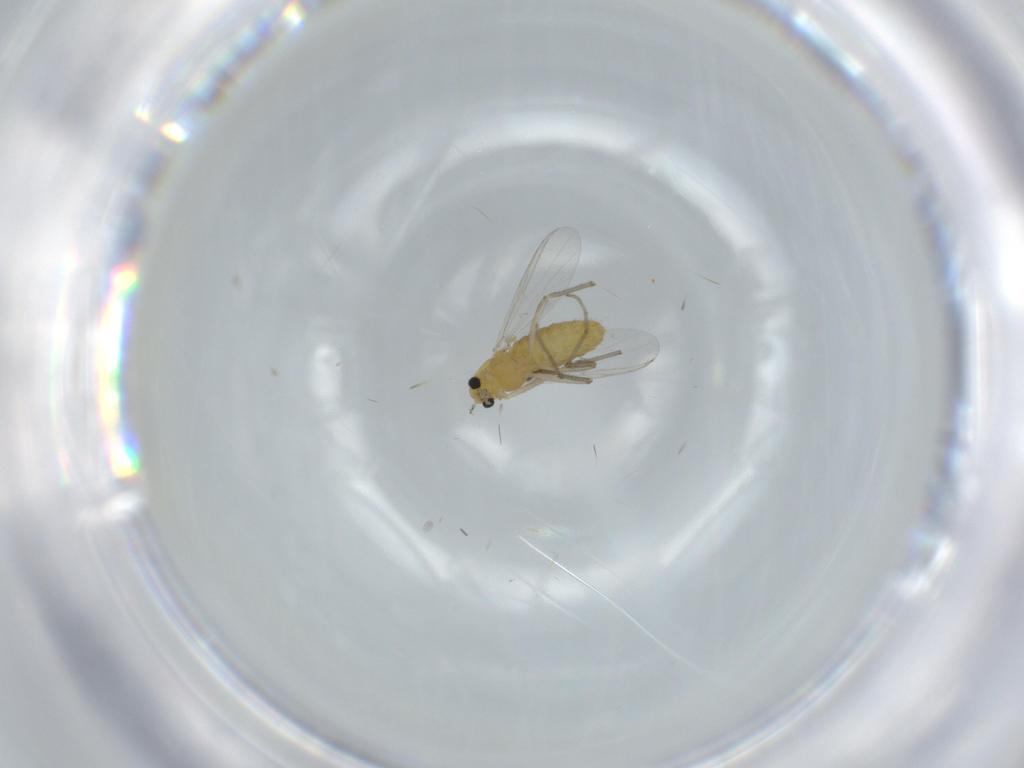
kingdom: Animalia
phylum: Arthropoda
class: Insecta
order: Diptera
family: Chironomidae
